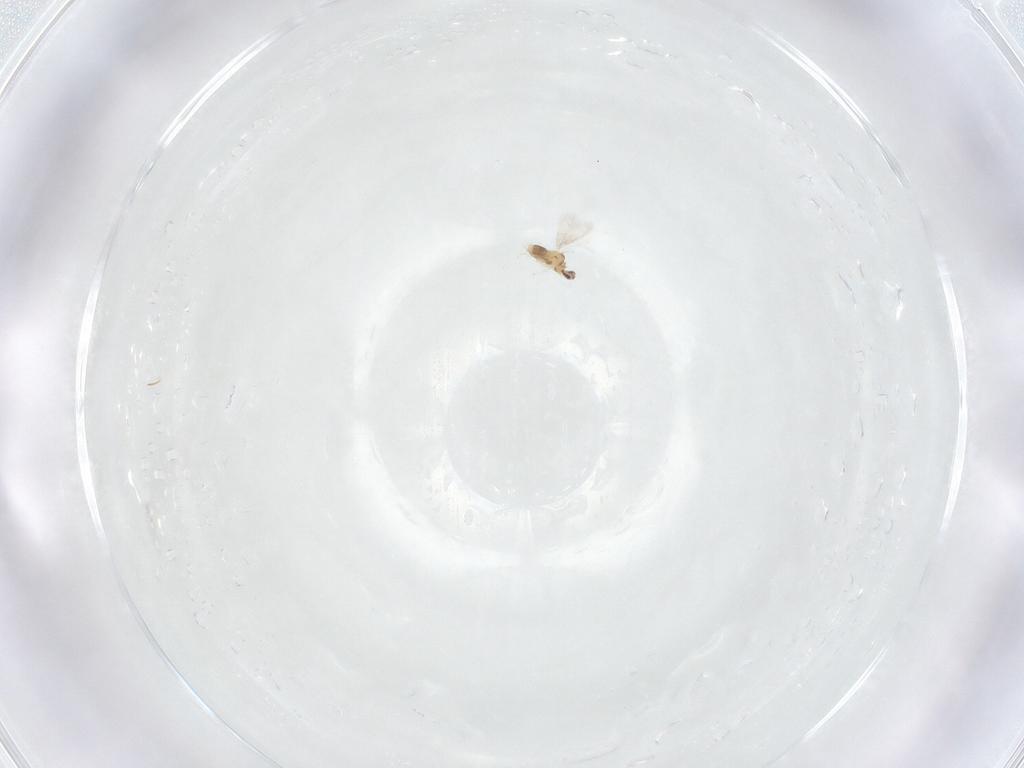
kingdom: Animalia
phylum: Arthropoda
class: Insecta
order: Hymenoptera
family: Aphelinidae
